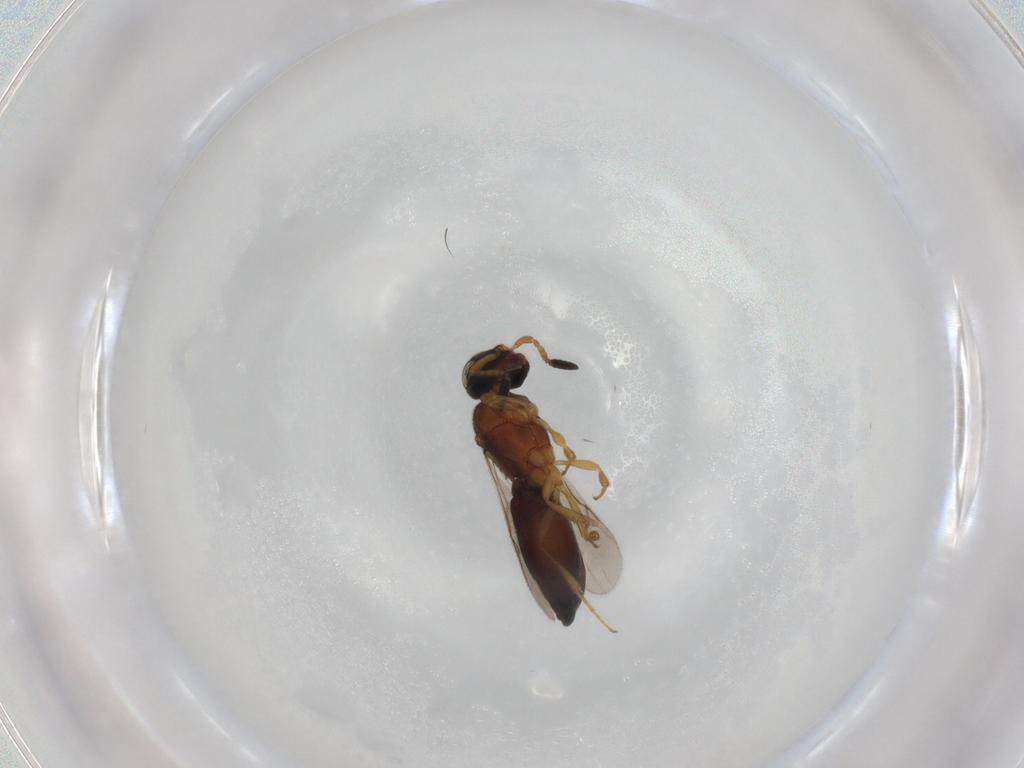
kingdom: Animalia
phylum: Arthropoda
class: Insecta
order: Hymenoptera
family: Scelionidae
